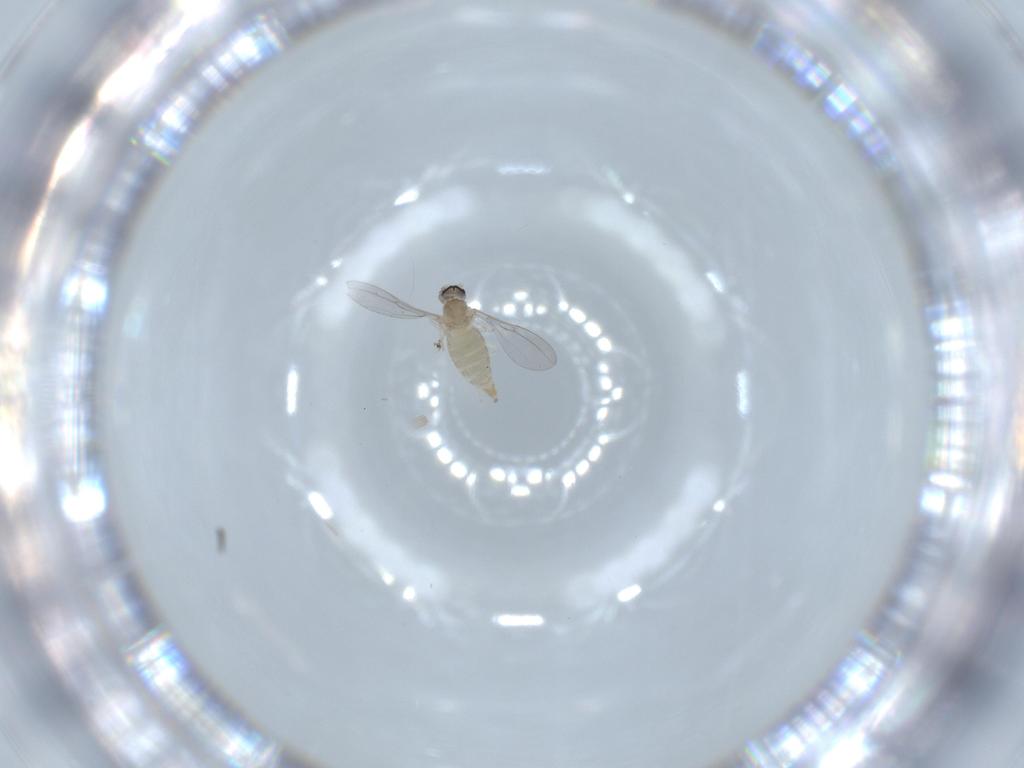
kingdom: Animalia
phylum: Arthropoda
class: Insecta
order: Diptera
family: Cecidomyiidae
